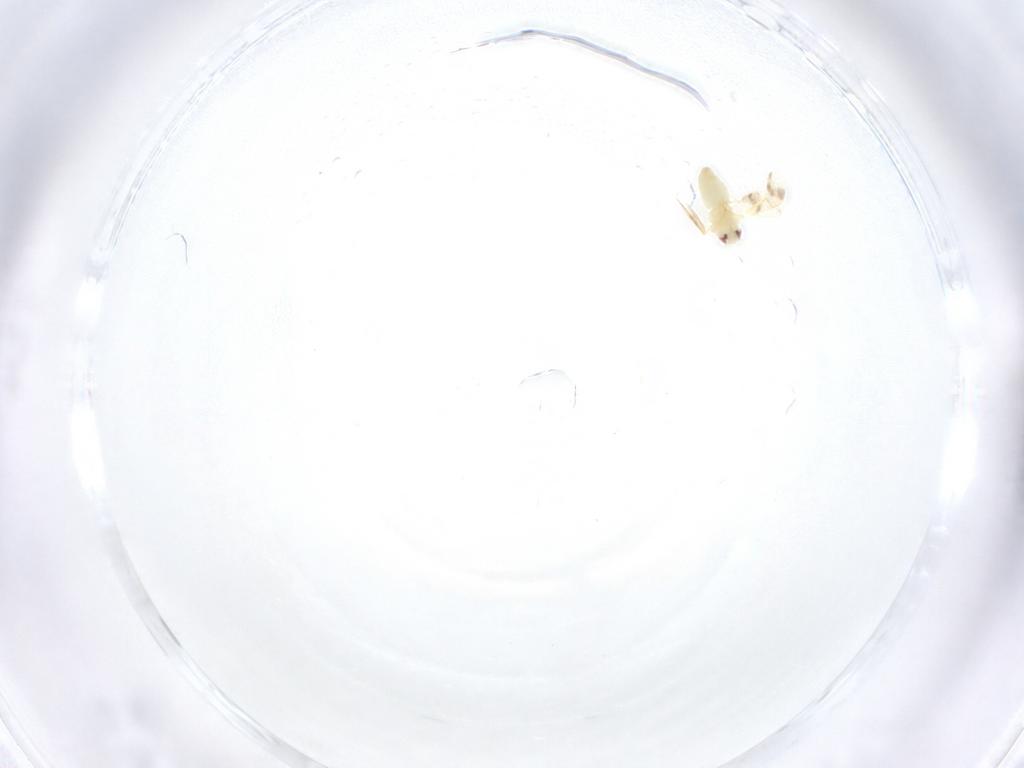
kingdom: Animalia
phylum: Arthropoda
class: Insecta
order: Hemiptera
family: Aleyrodidae
